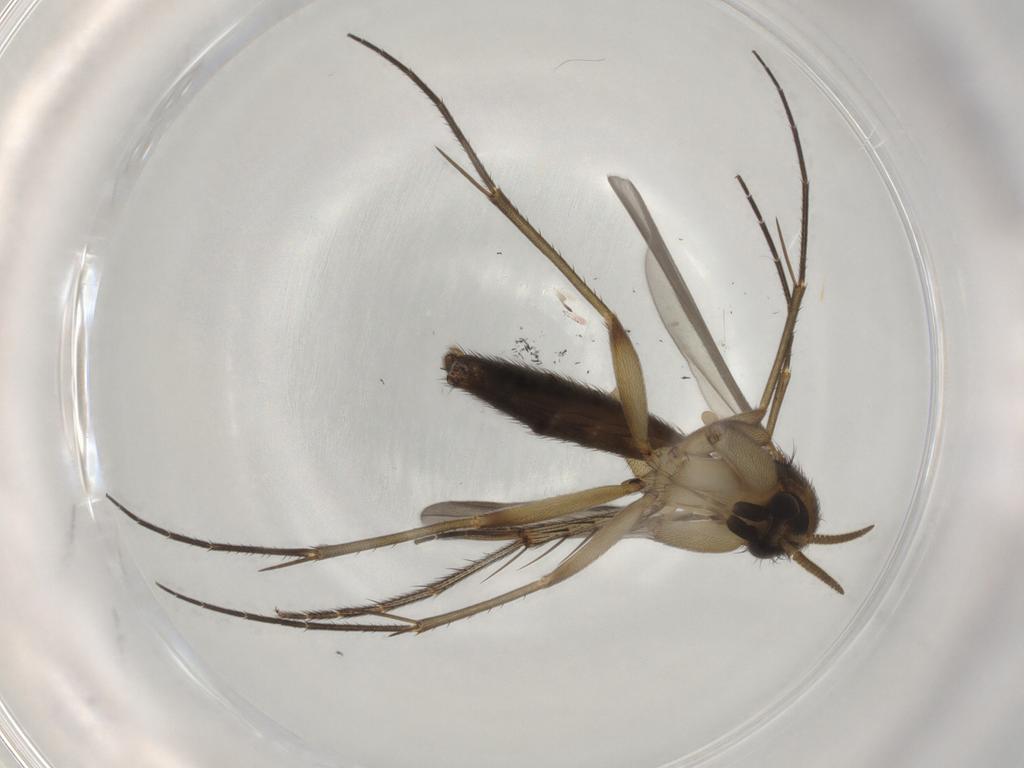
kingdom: Animalia
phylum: Arthropoda
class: Insecta
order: Diptera
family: Mycetophilidae
